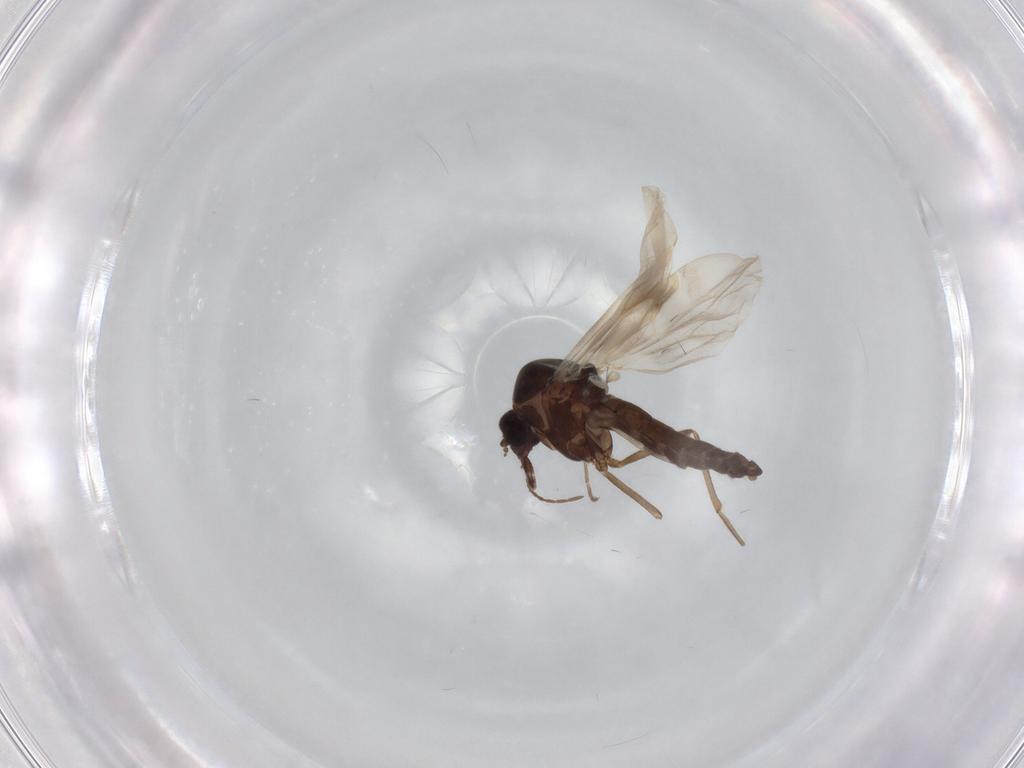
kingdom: Animalia
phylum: Arthropoda
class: Insecta
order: Diptera
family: Ceratopogonidae
